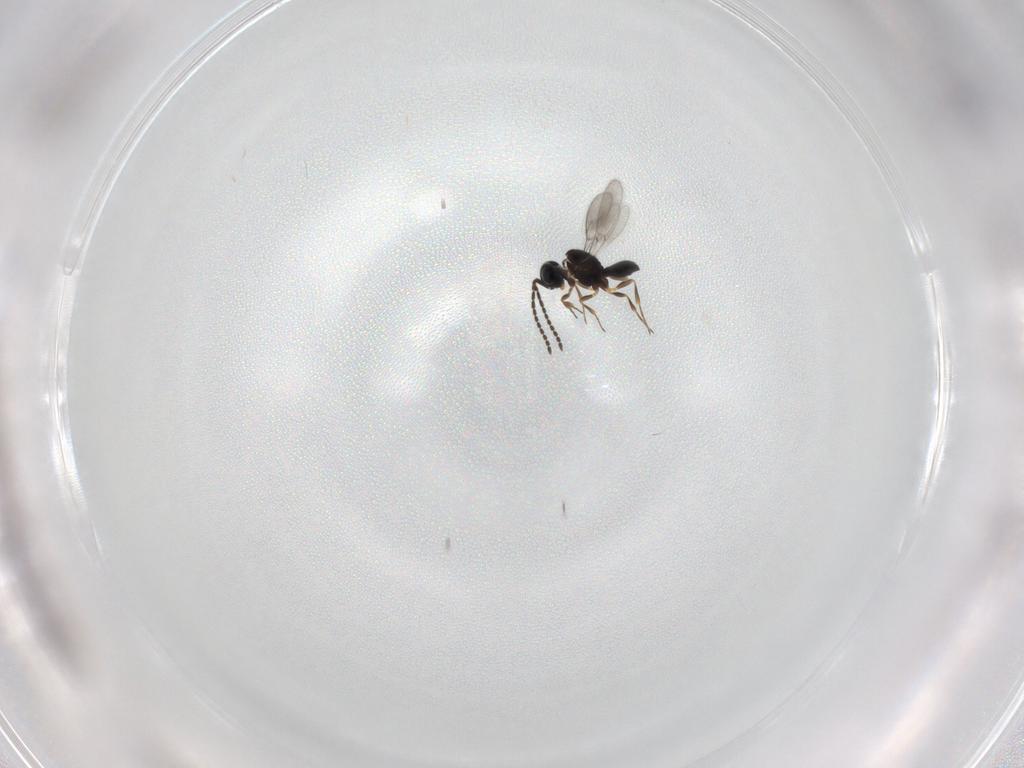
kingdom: Animalia
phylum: Arthropoda
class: Insecta
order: Hymenoptera
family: Scelionidae
